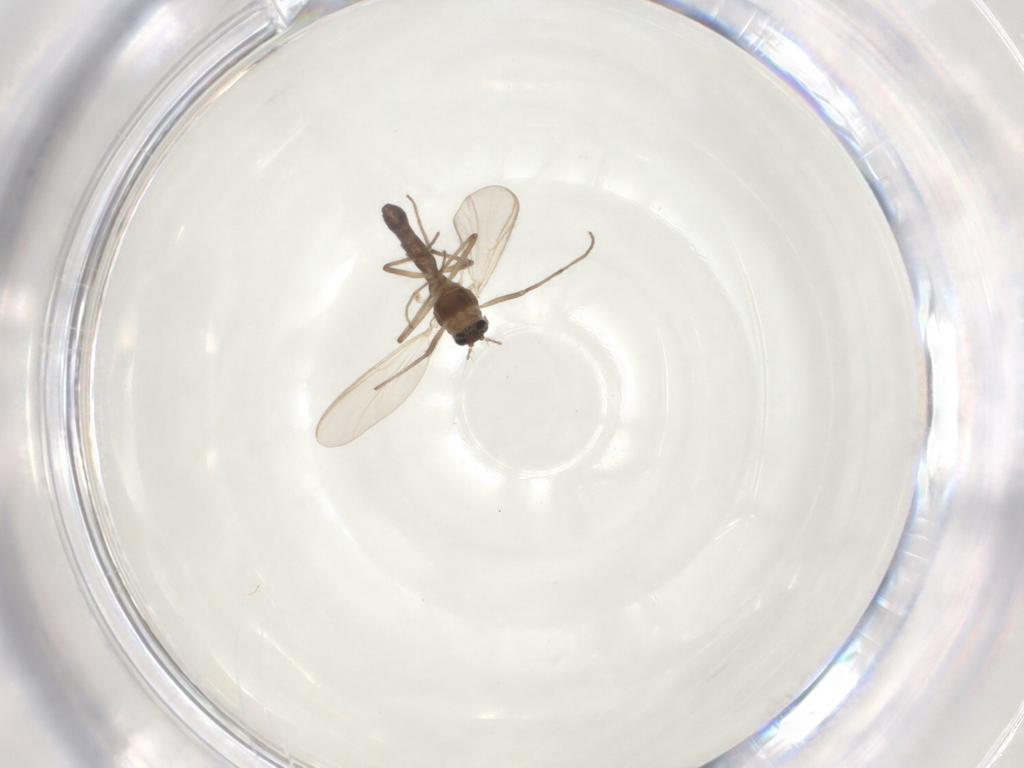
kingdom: Animalia
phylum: Arthropoda
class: Insecta
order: Diptera
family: Chironomidae
